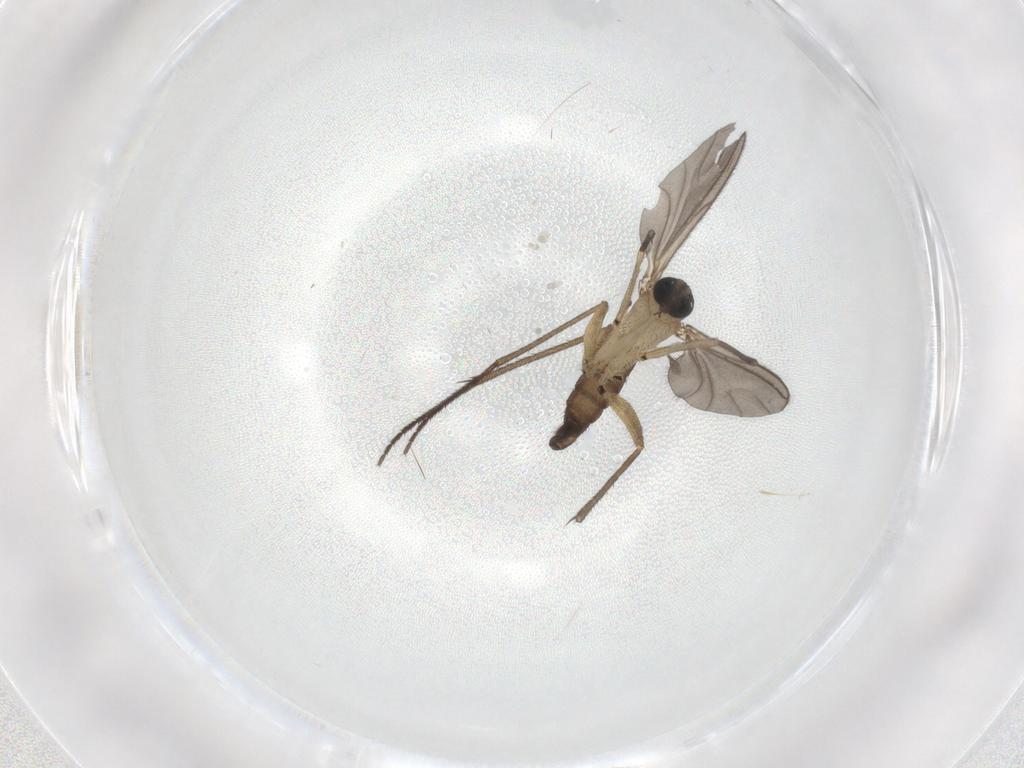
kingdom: Animalia
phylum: Arthropoda
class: Insecta
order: Diptera
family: Sciaridae
